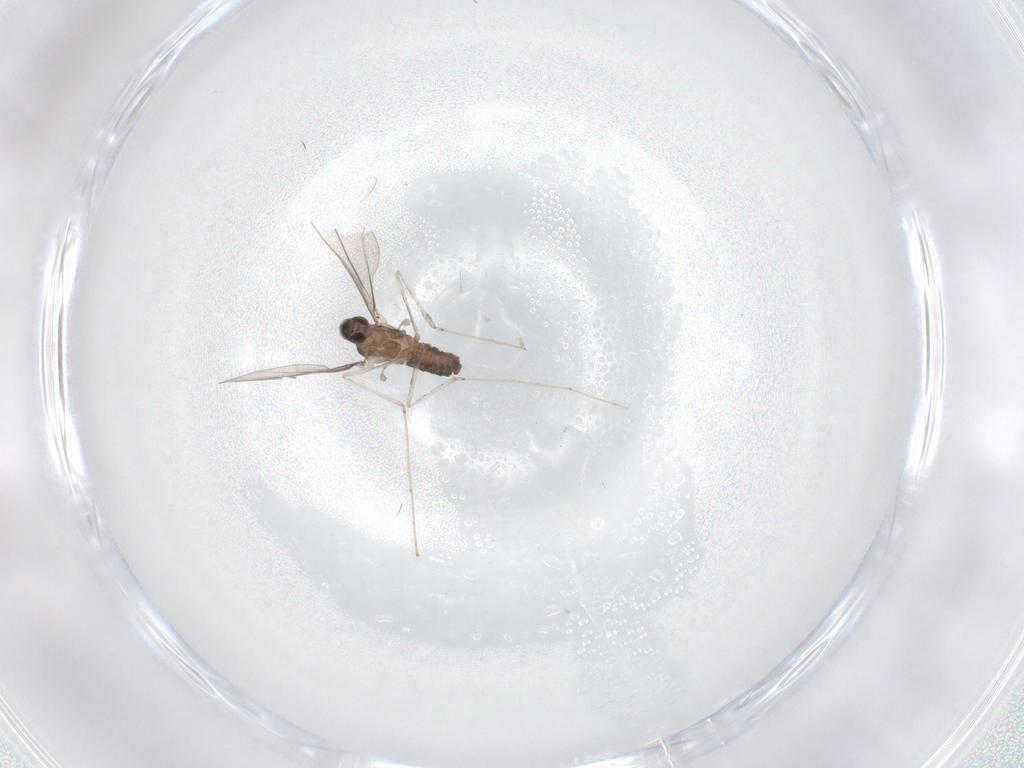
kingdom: Animalia
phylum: Arthropoda
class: Insecta
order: Diptera
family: Cecidomyiidae
